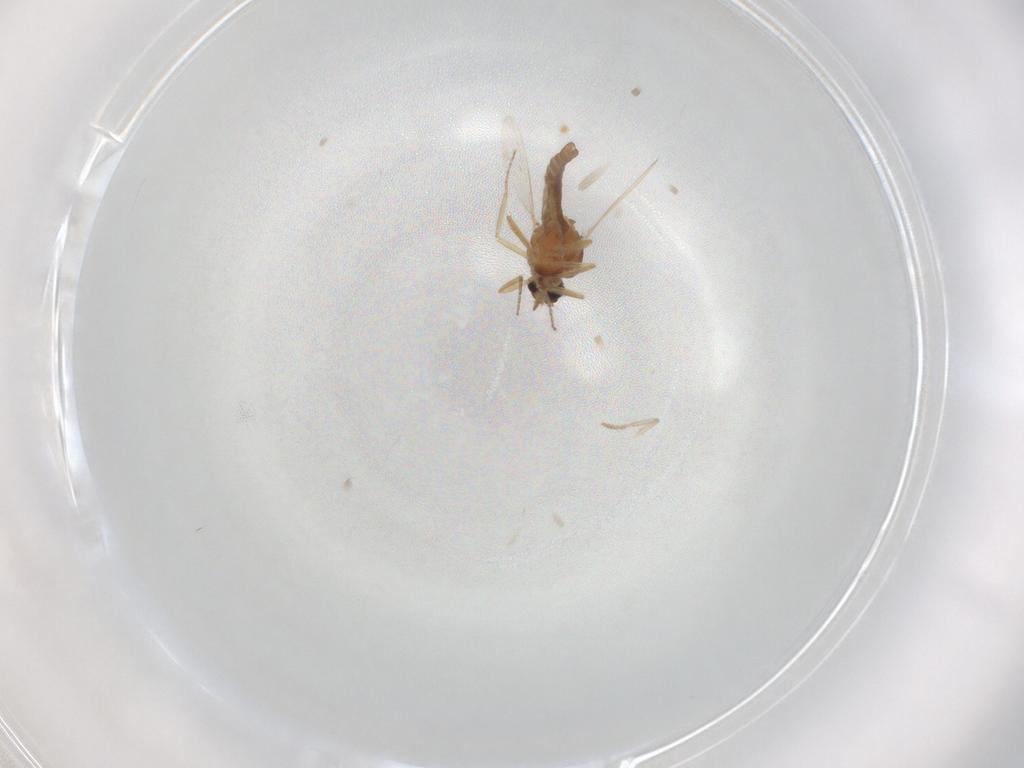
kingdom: Animalia
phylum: Arthropoda
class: Insecta
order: Diptera
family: Ceratopogonidae
